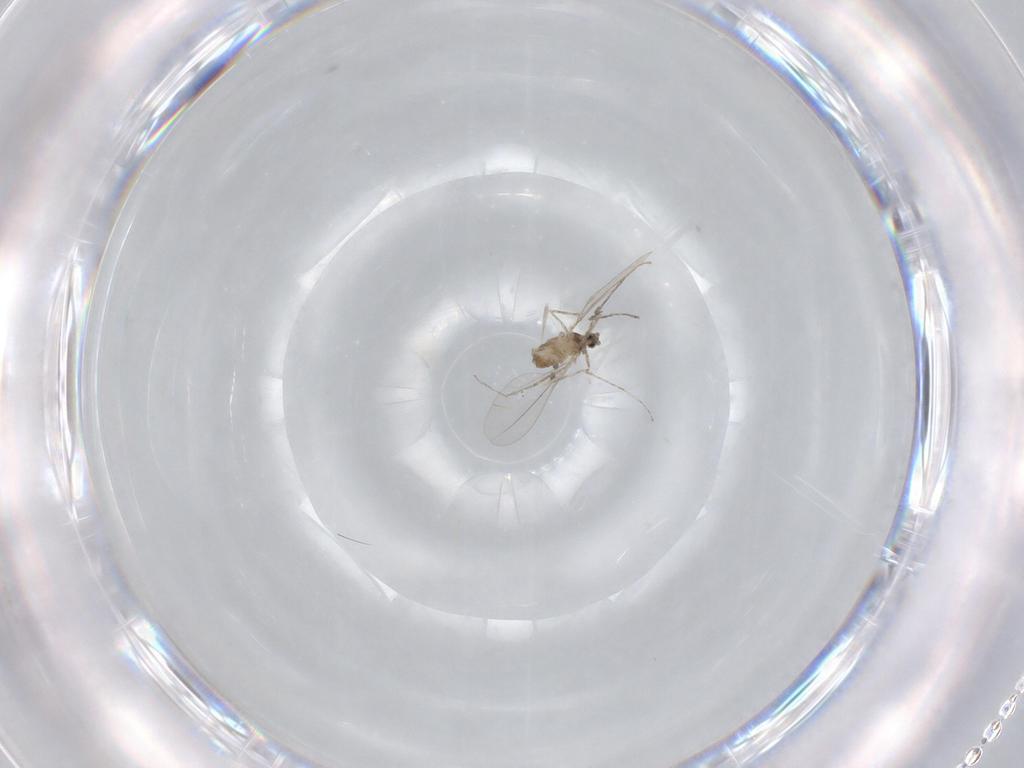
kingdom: Animalia
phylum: Arthropoda
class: Insecta
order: Diptera
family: Cecidomyiidae
